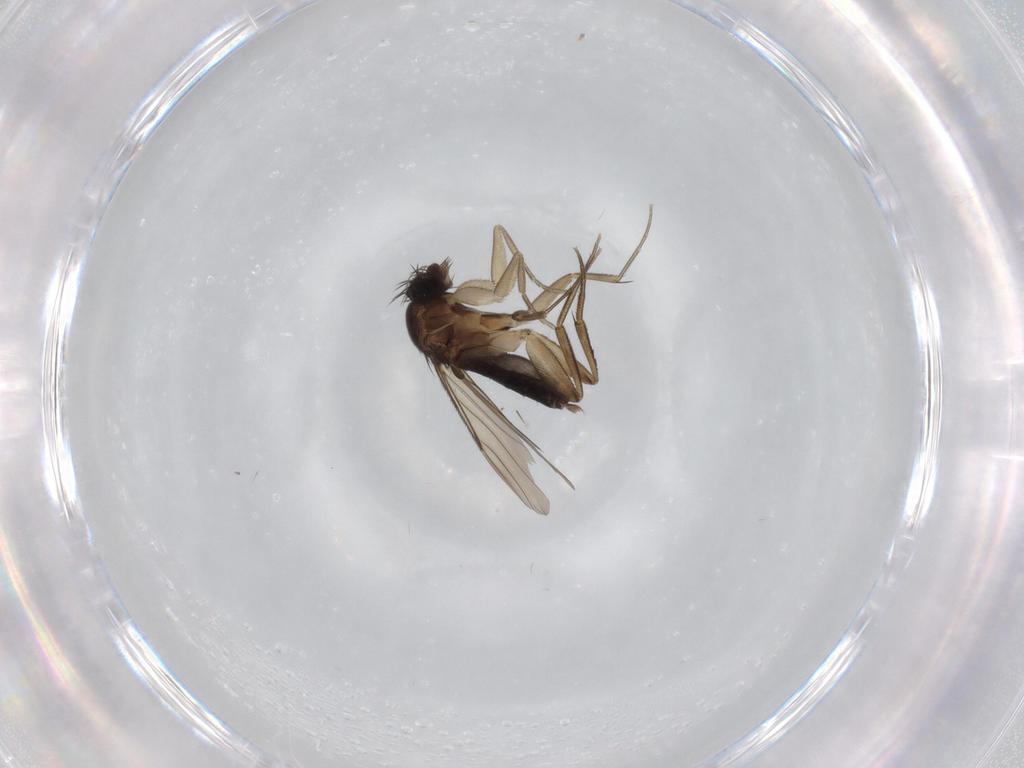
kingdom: Animalia
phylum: Arthropoda
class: Insecta
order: Diptera
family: Phoridae
